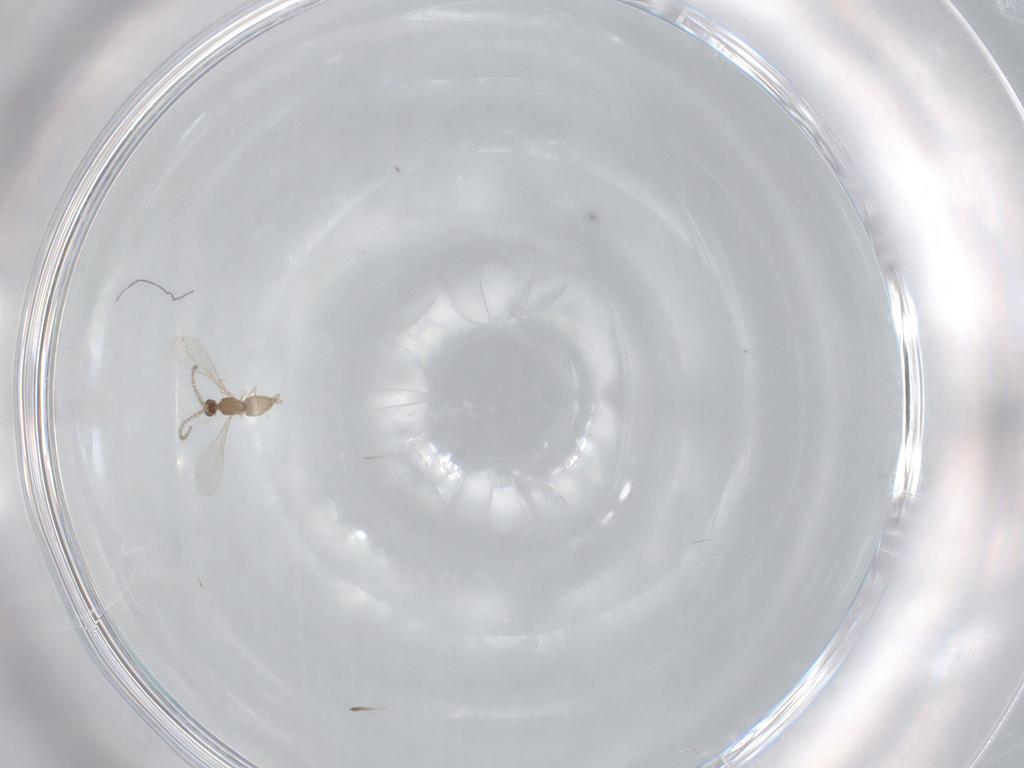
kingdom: Animalia
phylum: Arthropoda
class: Insecta
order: Diptera
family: Cecidomyiidae
